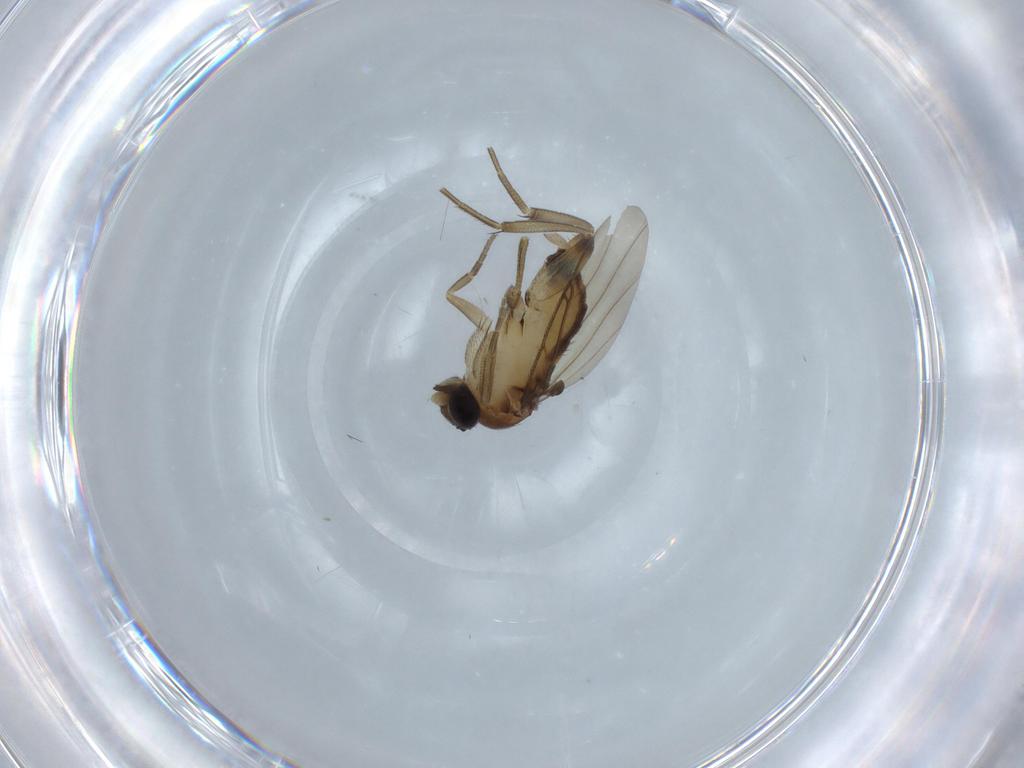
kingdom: Animalia
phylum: Arthropoda
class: Insecta
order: Diptera
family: Phoridae
